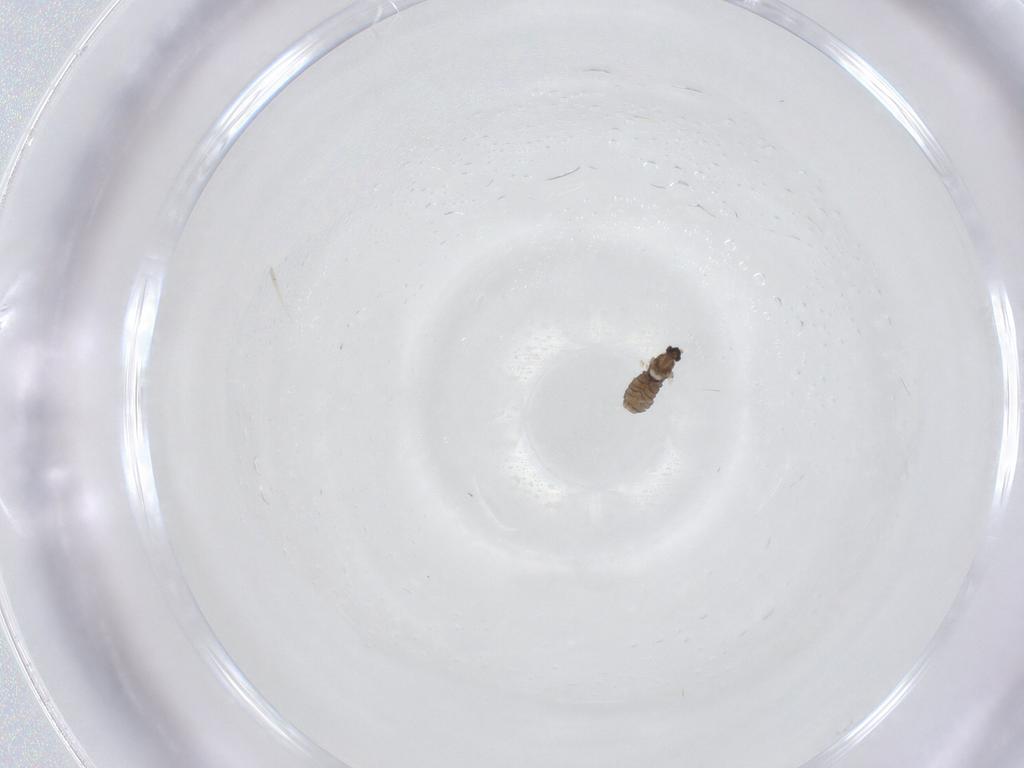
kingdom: Animalia
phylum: Arthropoda
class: Insecta
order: Diptera
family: Cecidomyiidae
